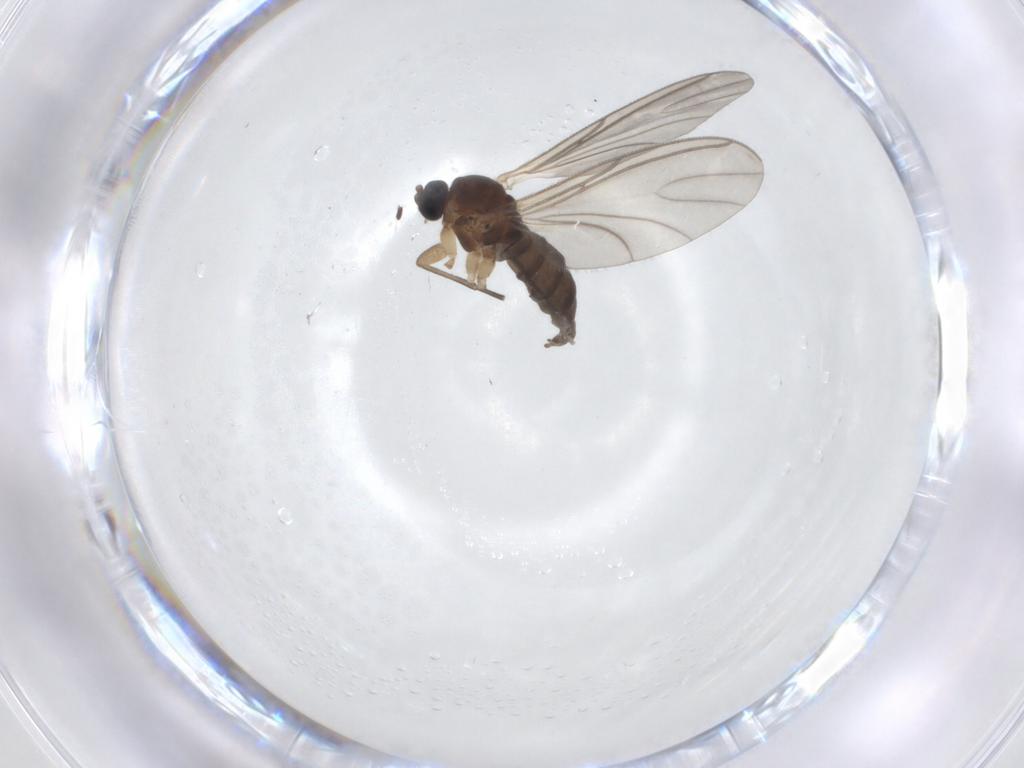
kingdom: Animalia
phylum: Arthropoda
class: Insecta
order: Diptera
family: Sciaridae
